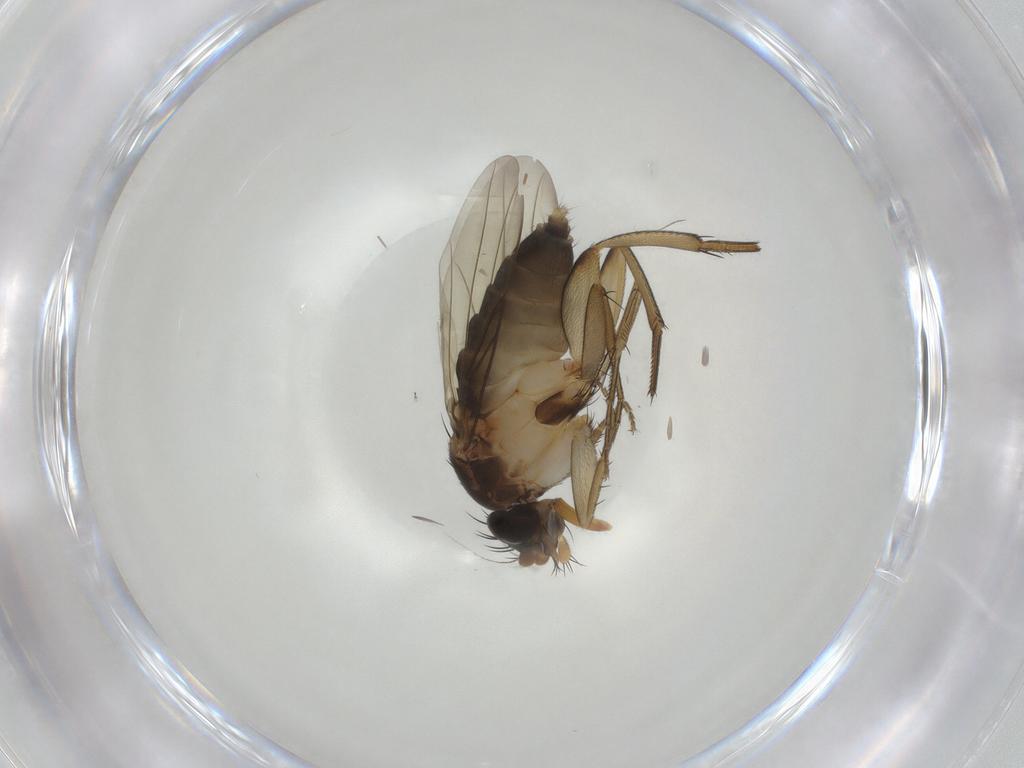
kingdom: Animalia
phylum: Arthropoda
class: Insecta
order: Diptera
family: Phoridae
